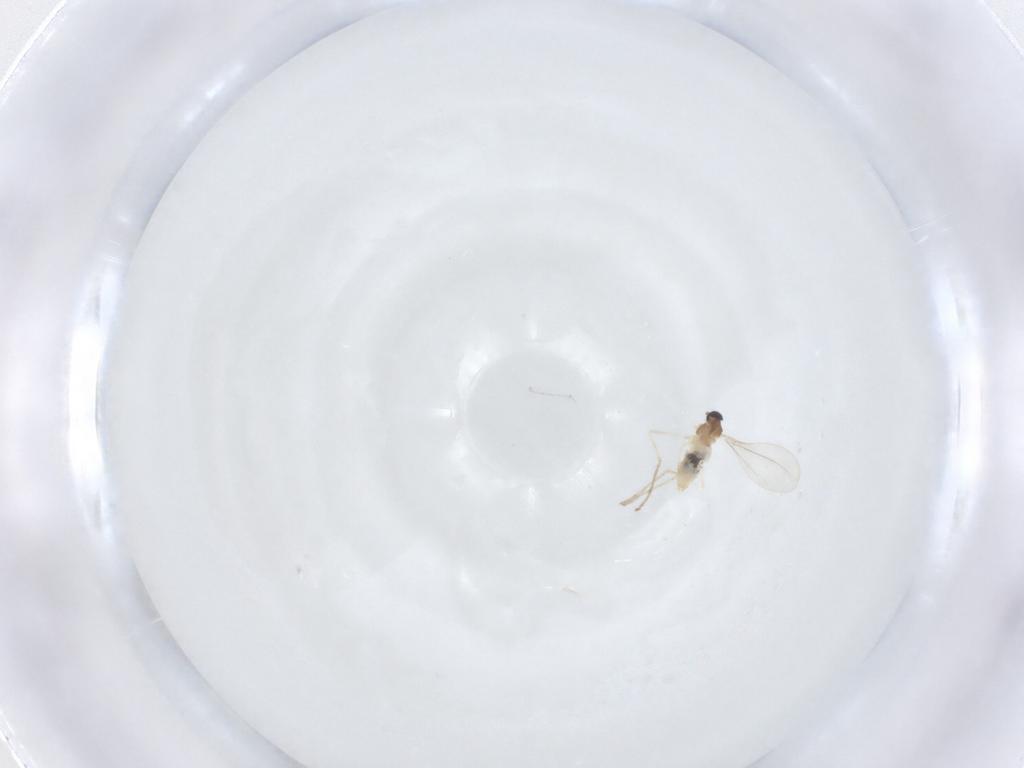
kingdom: Animalia
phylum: Arthropoda
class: Insecta
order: Diptera
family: Cecidomyiidae
